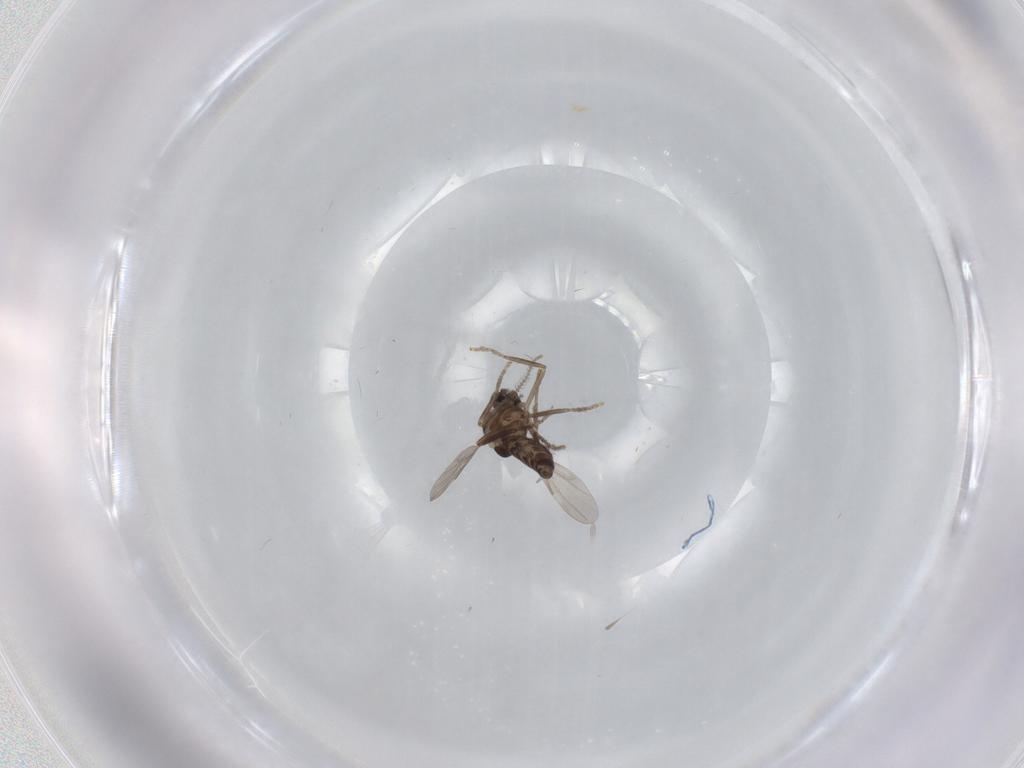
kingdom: Animalia
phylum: Arthropoda
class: Insecta
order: Diptera
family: Ceratopogonidae
